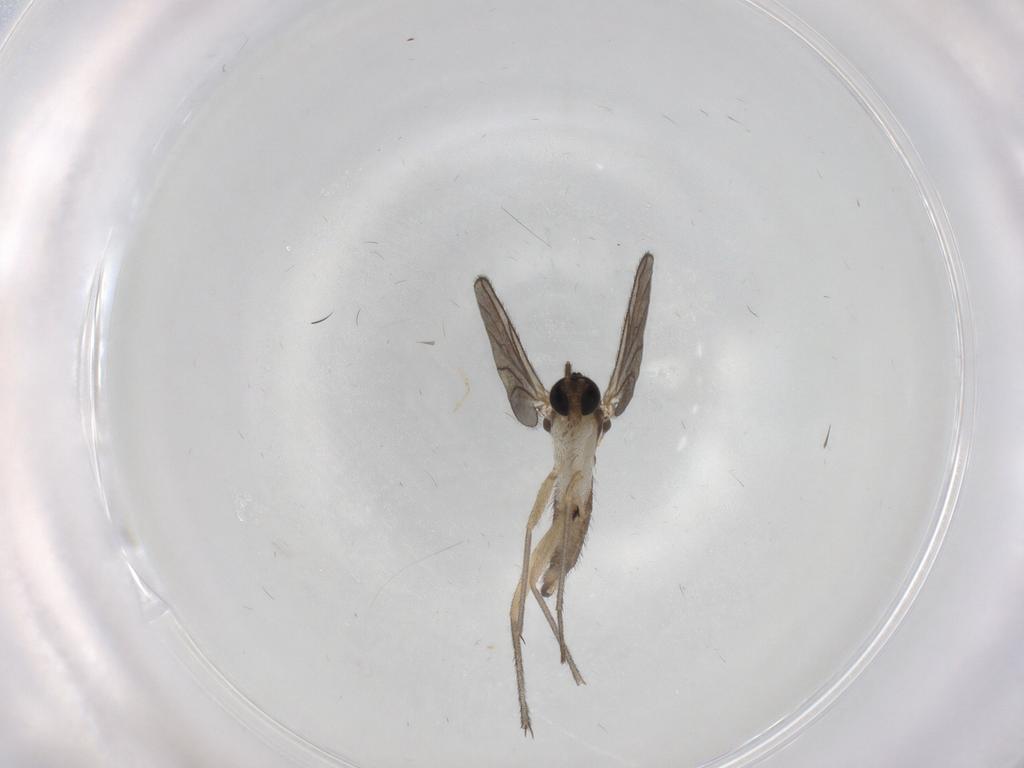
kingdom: Animalia
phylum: Arthropoda
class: Insecta
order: Diptera
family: Sciaridae
